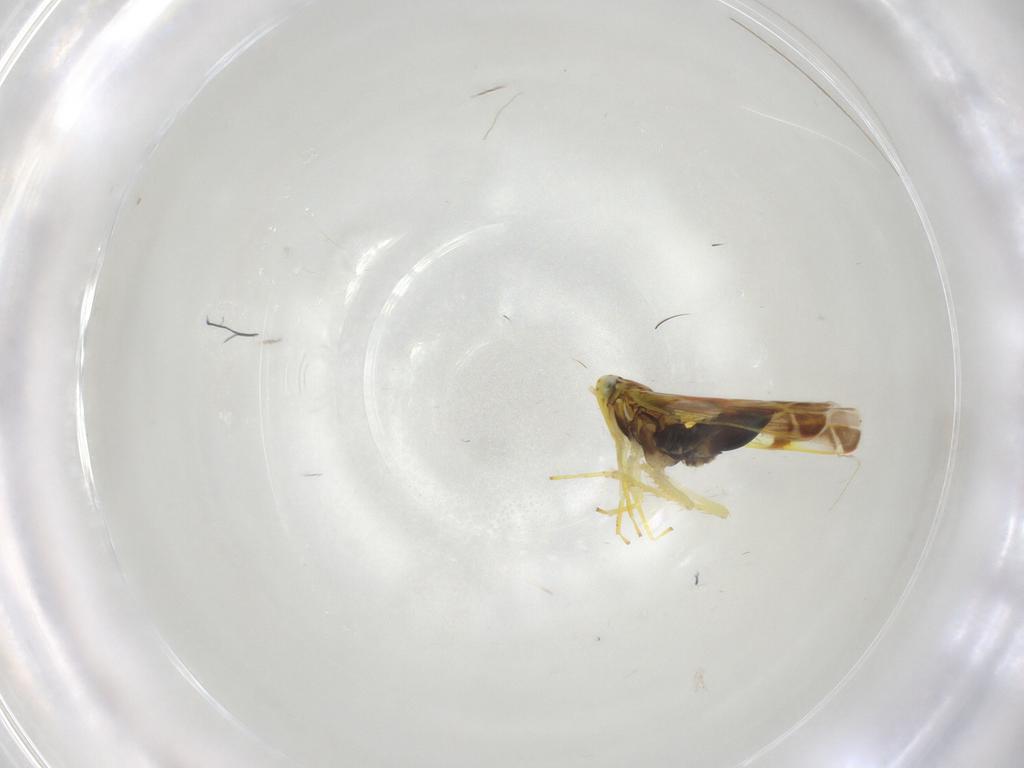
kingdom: Animalia
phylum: Arthropoda
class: Insecta
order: Hemiptera
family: Cicadellidae
